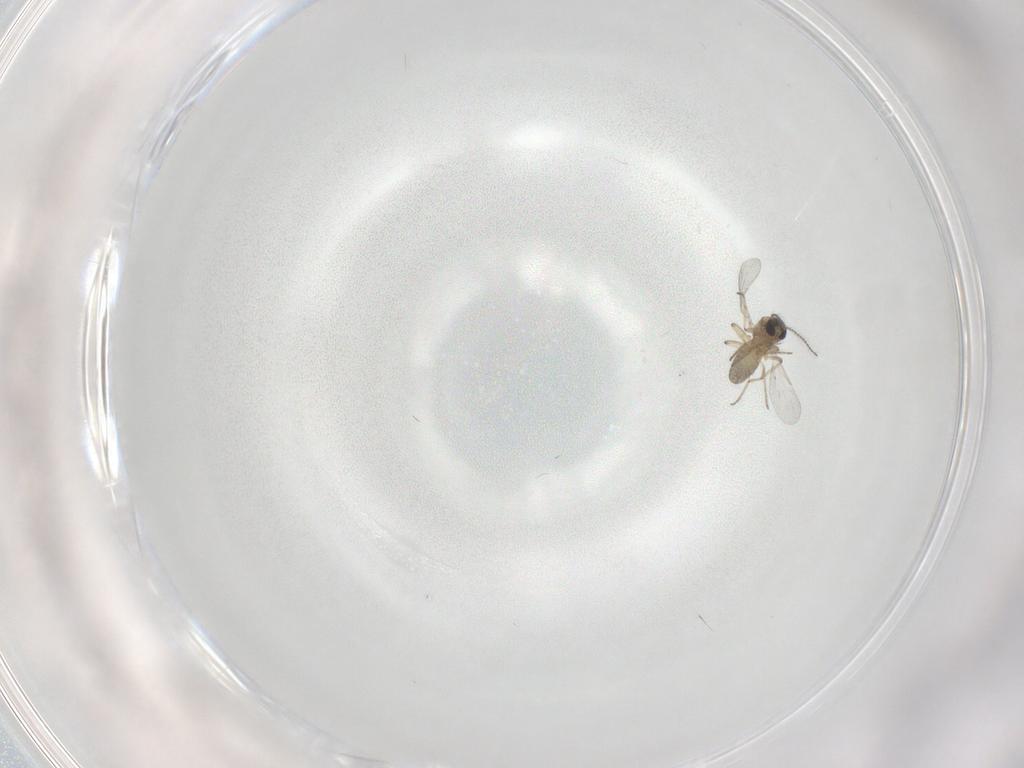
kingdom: Animalia
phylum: Arthropoda
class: Insecta
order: Diptera
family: Ceratopogonidae
